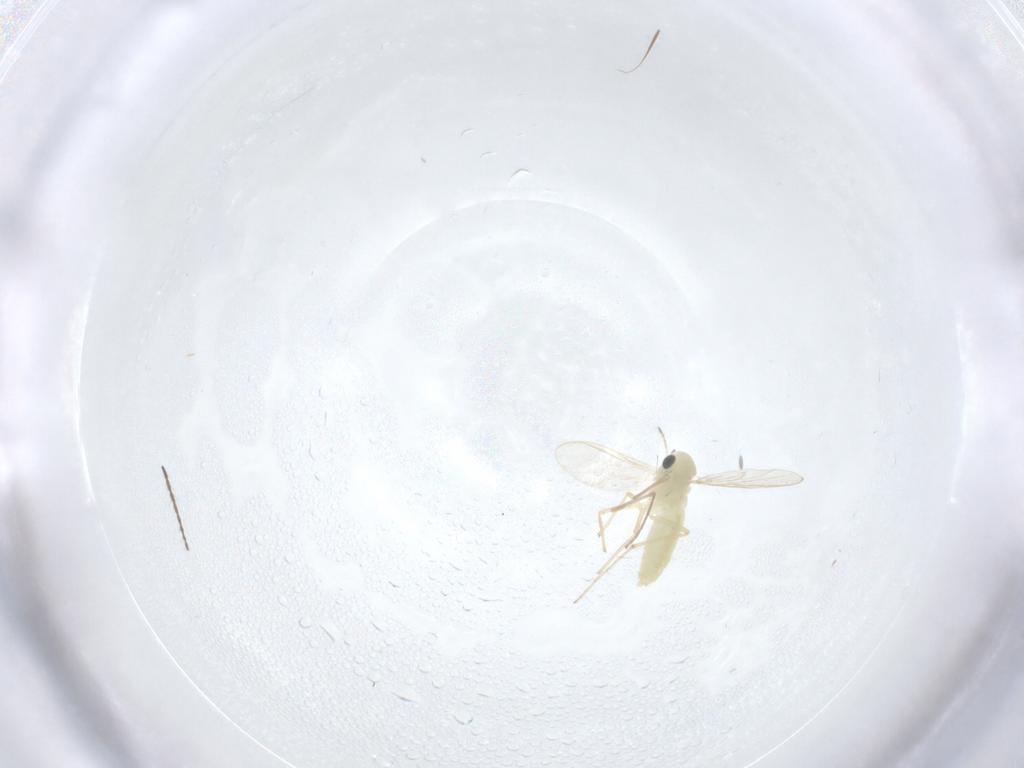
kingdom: Animalia
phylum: Arthropoda
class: Insecta
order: Diptera
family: Chironomidae
